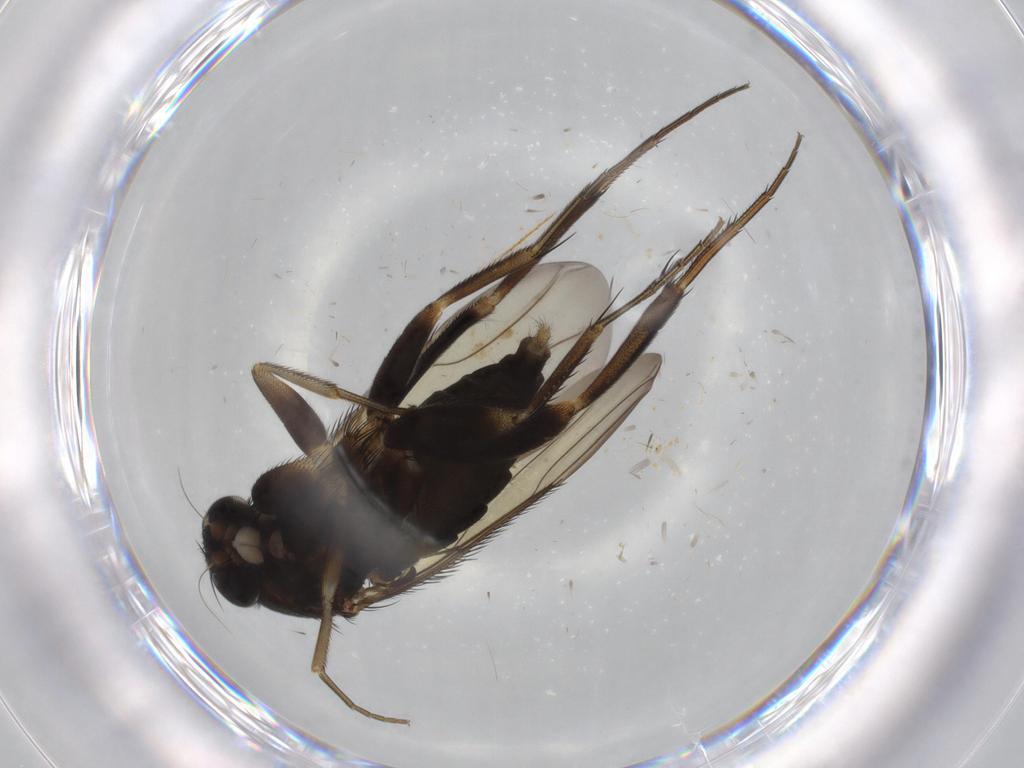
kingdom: Animalia
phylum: Arthropoda
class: Insecta
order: Diptera
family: Phoridae
